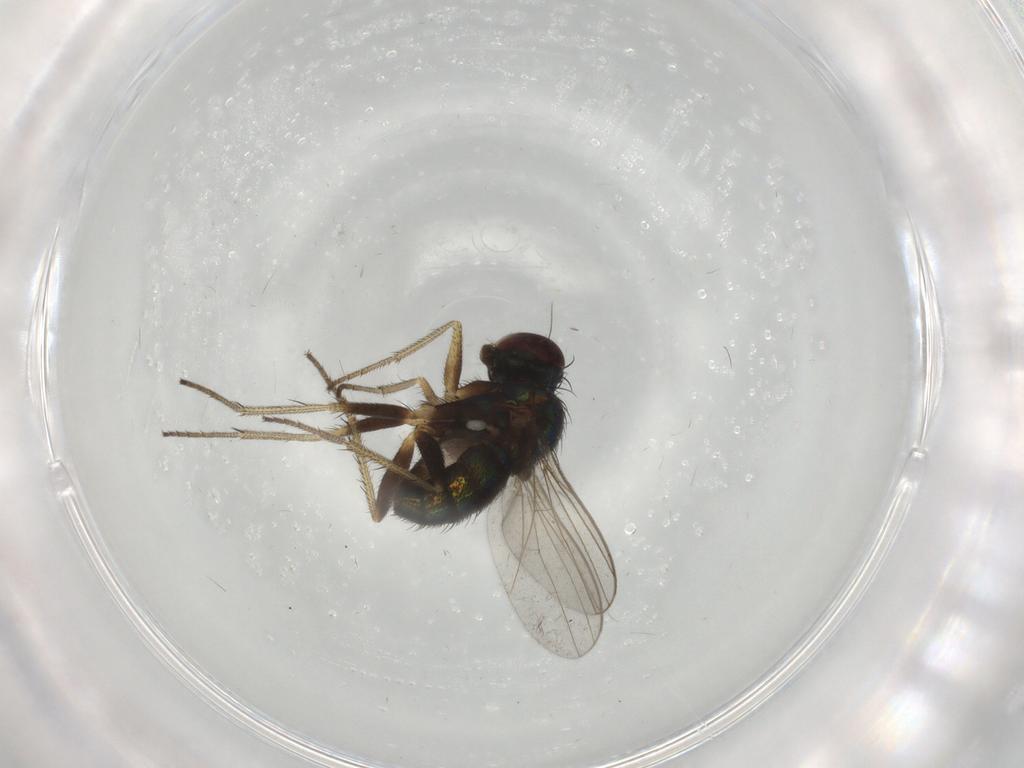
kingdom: Animalia
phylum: Arthropoda
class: Insecta
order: Diptera
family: Dolichopodidae
